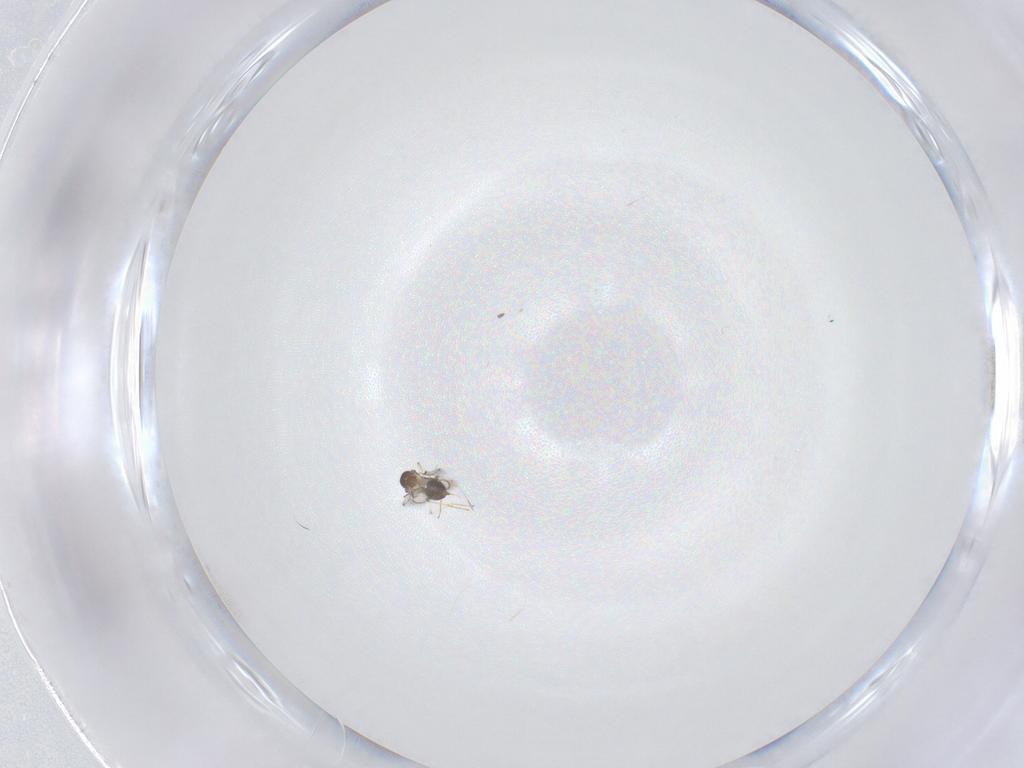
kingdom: Animalia
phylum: Arthropoda
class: Insecta
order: Hymenoptera
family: Eulophidae
